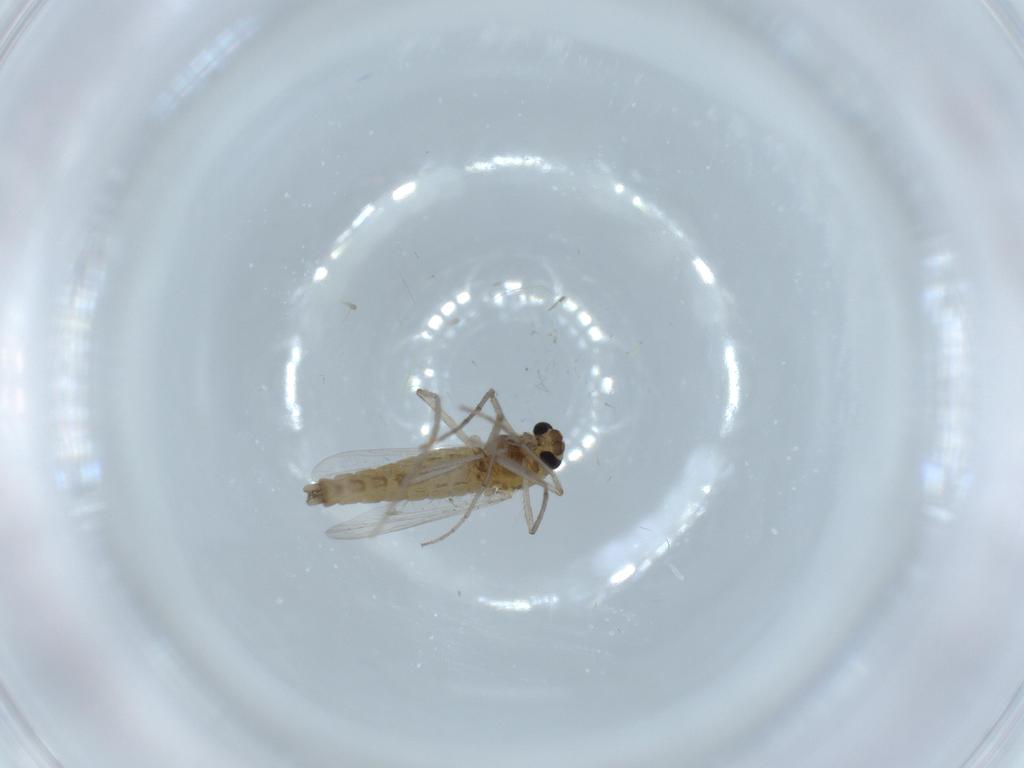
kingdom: Animalia
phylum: Arthropoda
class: Insecta
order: Diptera
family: Chironomidae
